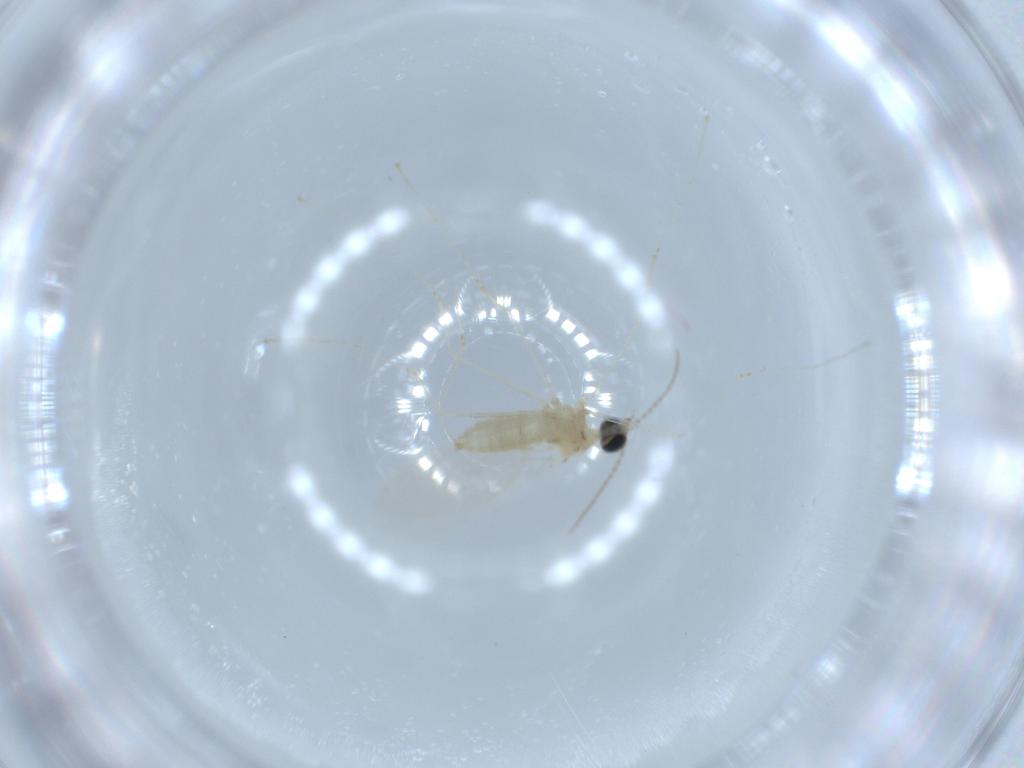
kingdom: Animalia
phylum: Arthropoda
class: Insecta
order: Diptera
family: Cecidomyiidae
